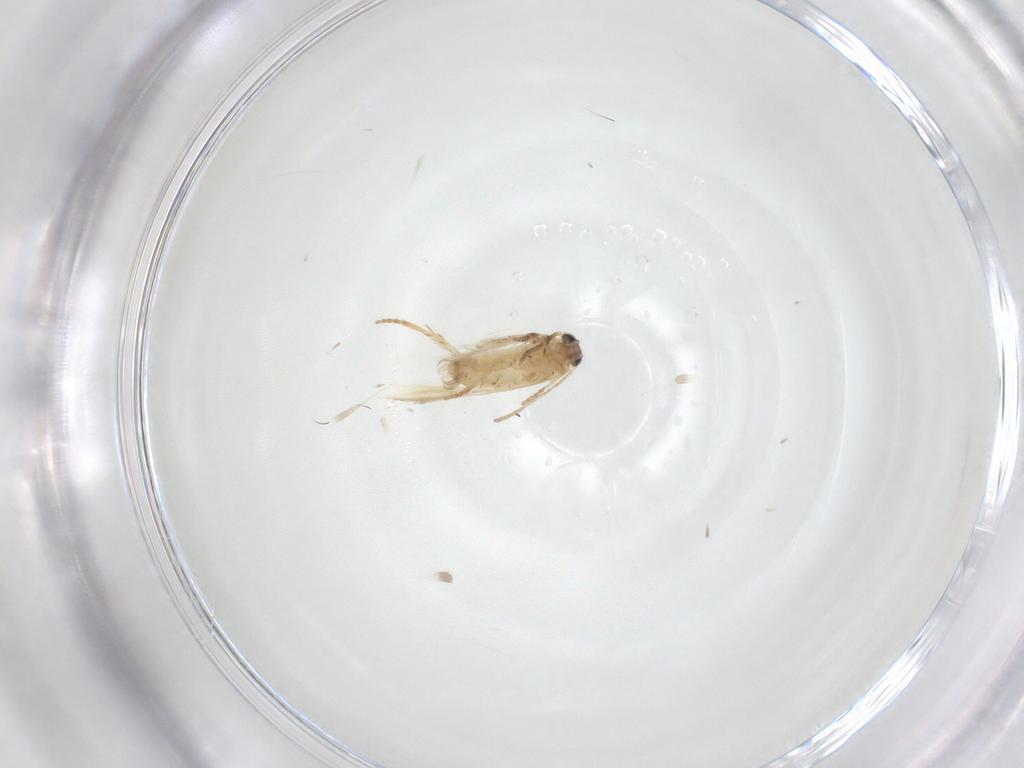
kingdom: Animalia
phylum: Arthropoda
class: Insecta
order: Lepidoptera
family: Nepticulidae
